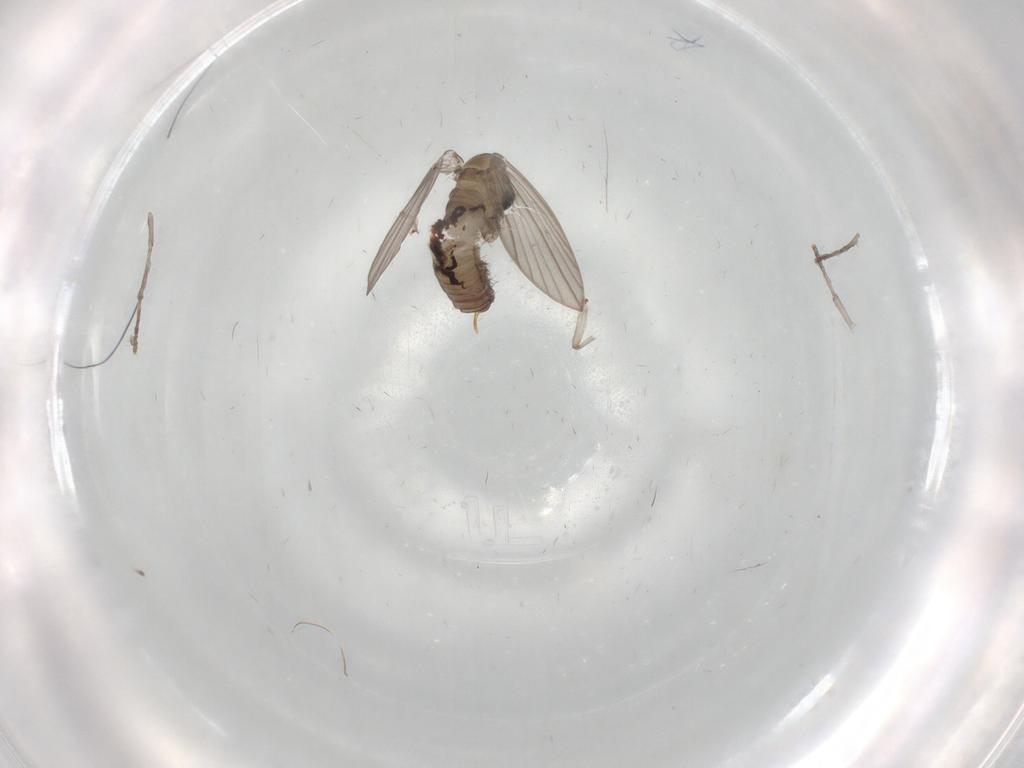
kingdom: Animalia
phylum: Arthropoda
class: Insecta
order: Diptera
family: Psychodidae
